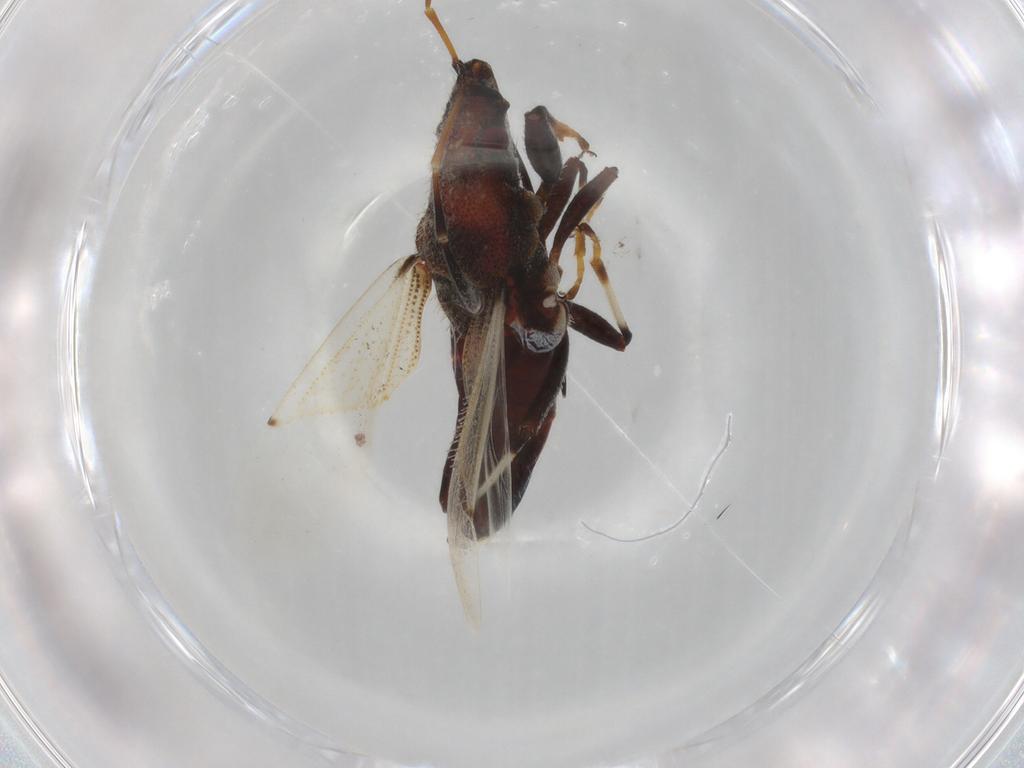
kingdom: Animalia
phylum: Arthropoda
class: Insecta
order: Hemiptera
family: Oxycarenidae
